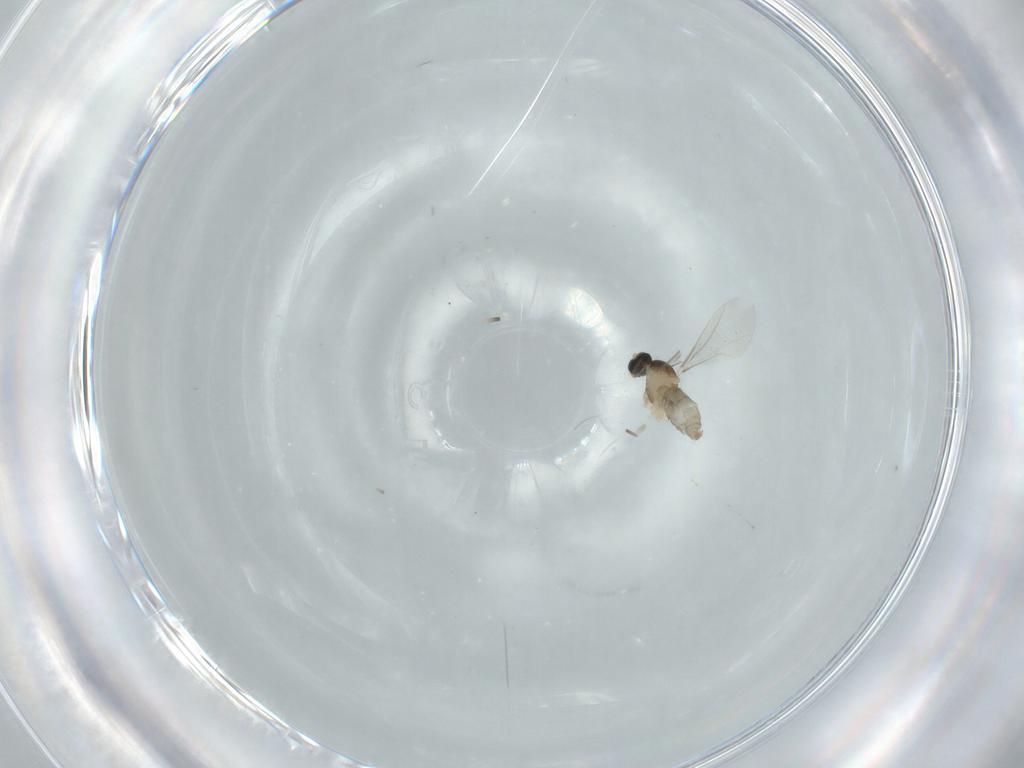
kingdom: Animalia
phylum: Arthropoda
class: Insecta
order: Diptera
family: Cecidomyiidae
